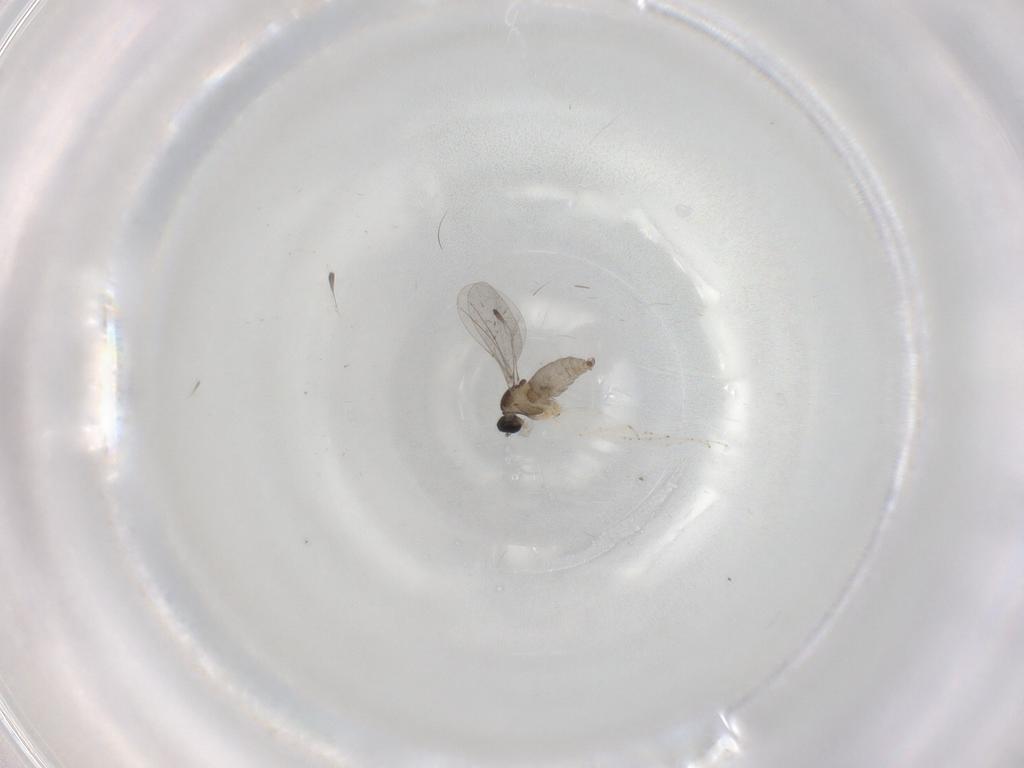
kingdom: Animalia
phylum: Arthropoda
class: Insecta
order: Diptera
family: Cecidomyiidae
